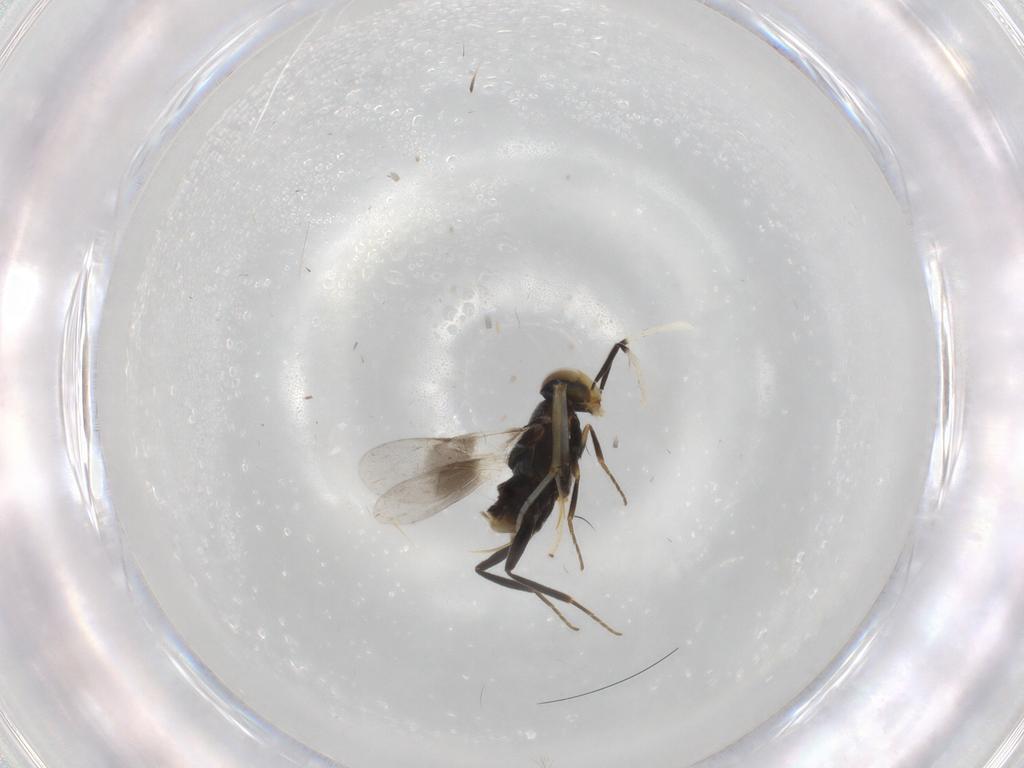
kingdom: Animalia
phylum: Arthropoda
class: Insecta
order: Hymenoptera
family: Encyrtidae
